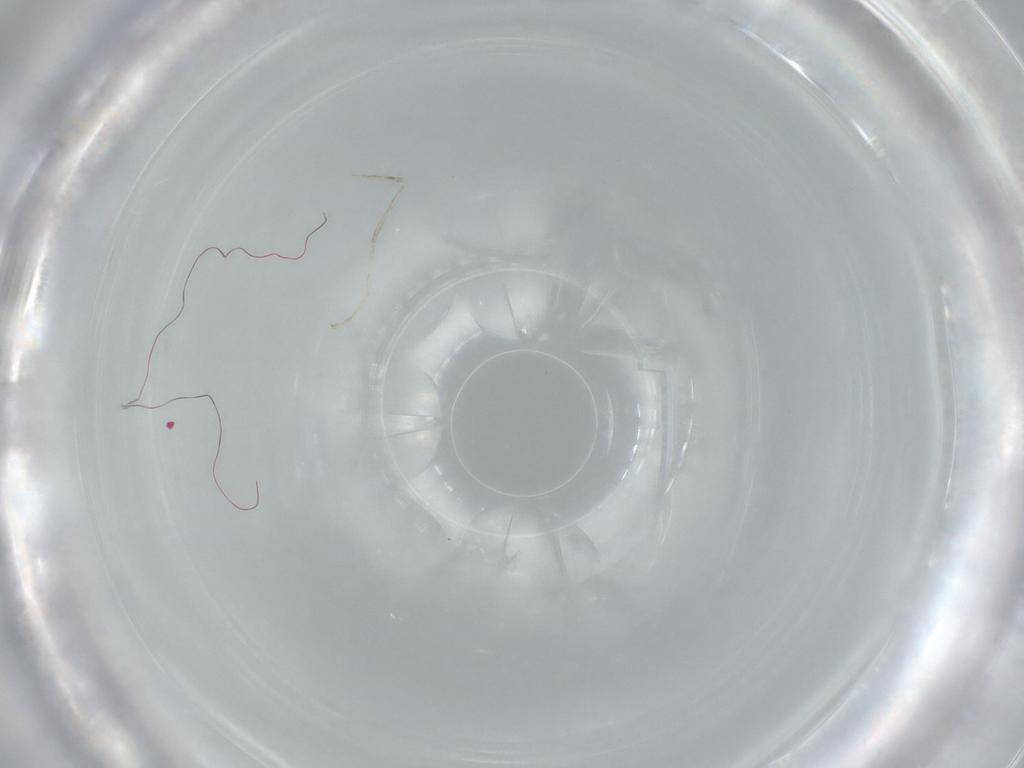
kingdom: Animalia
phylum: Arthropoda
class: Insecta
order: Diptera
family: Cecidomyiidae
